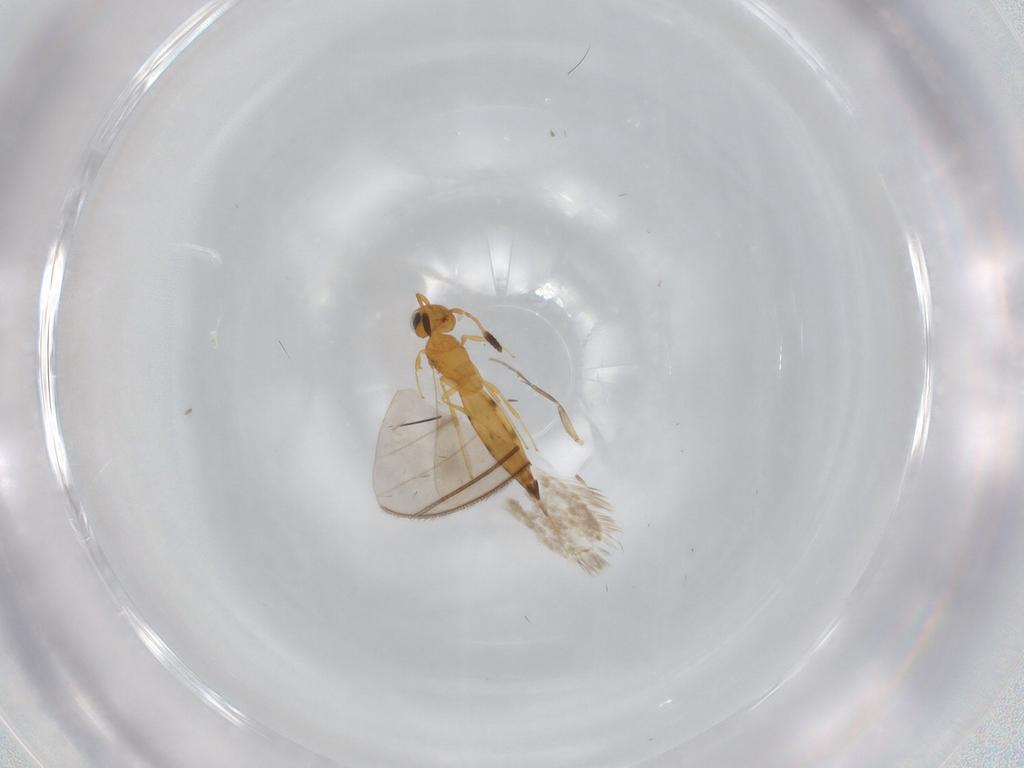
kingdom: Animalia
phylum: Arthropoda
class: Insecta
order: Hymenoptera
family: Scelionidae
